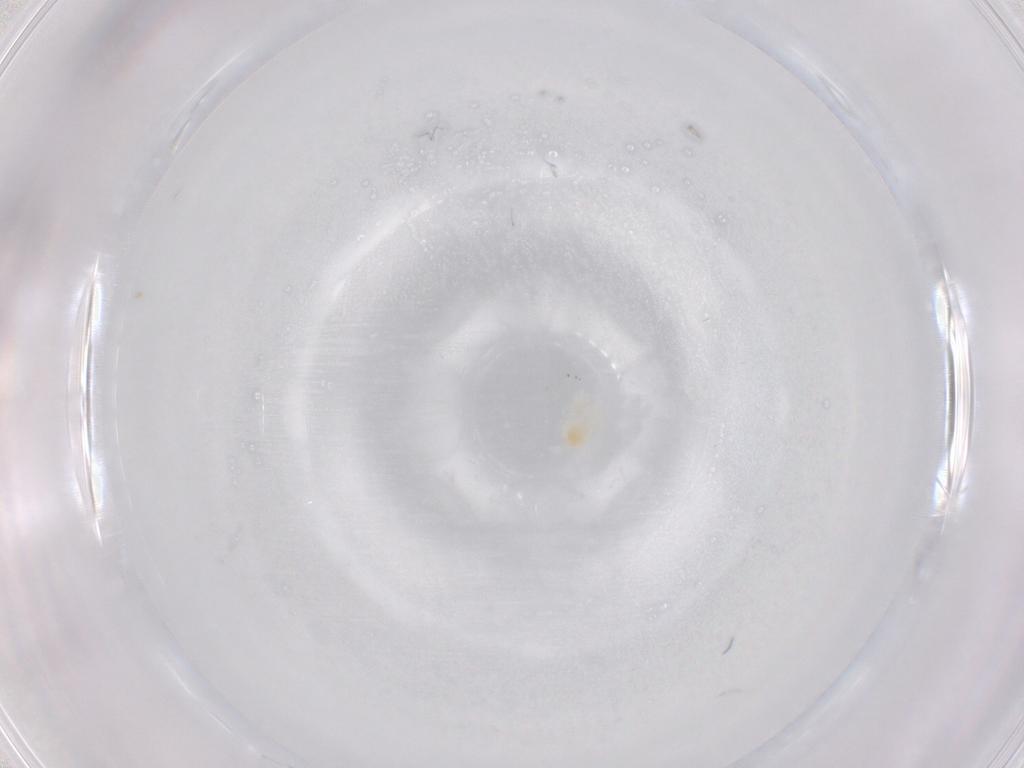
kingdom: Animalia
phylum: Arthropoda
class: Arachnida
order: Trombidiformes
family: Eupodidae
